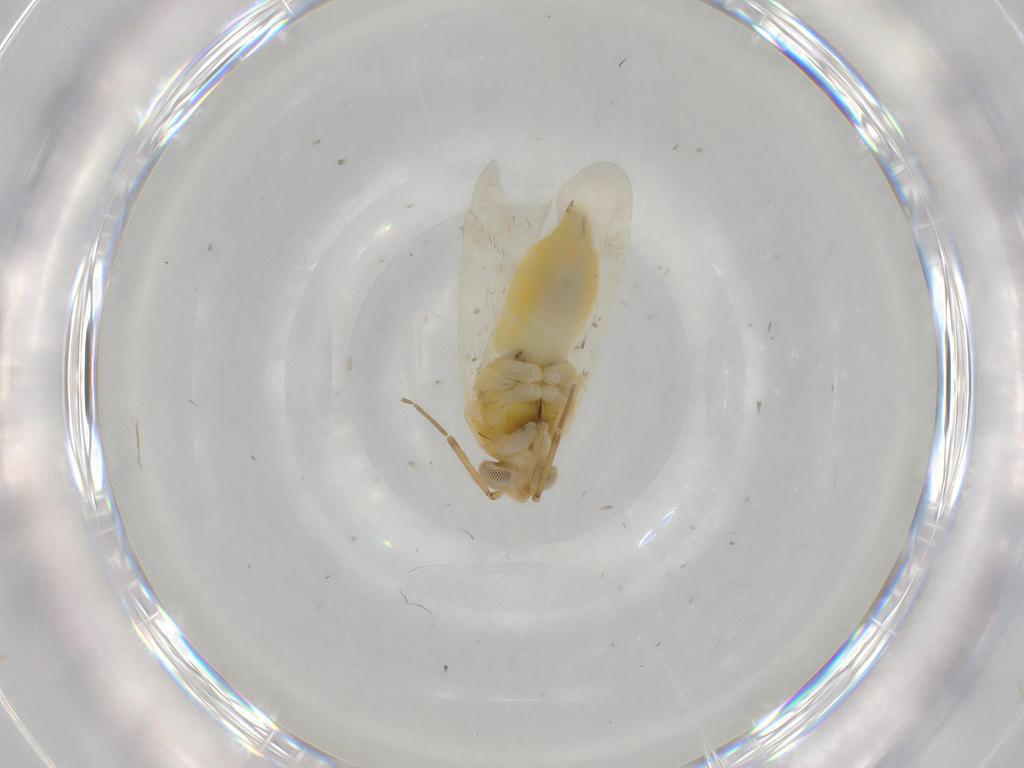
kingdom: Animalia
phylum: Arthropoda
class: Insecta
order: Hemiptera
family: Miridae
